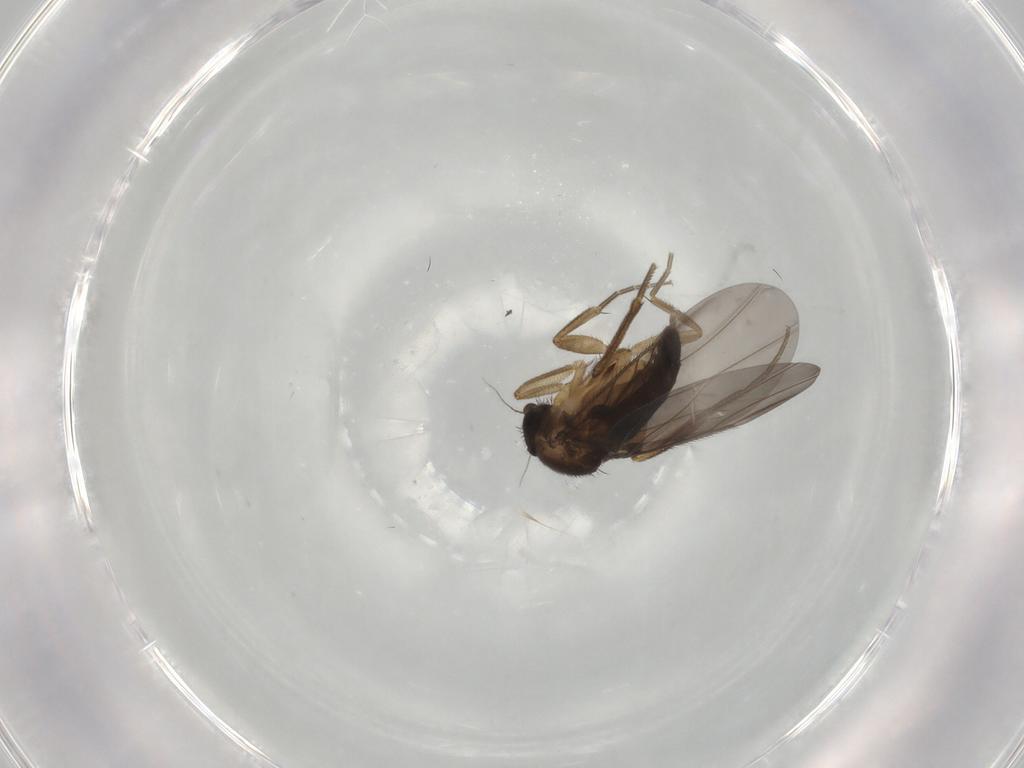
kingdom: Animalia
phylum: Arthropoda
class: Insecta
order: Diptera
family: Phoridae
